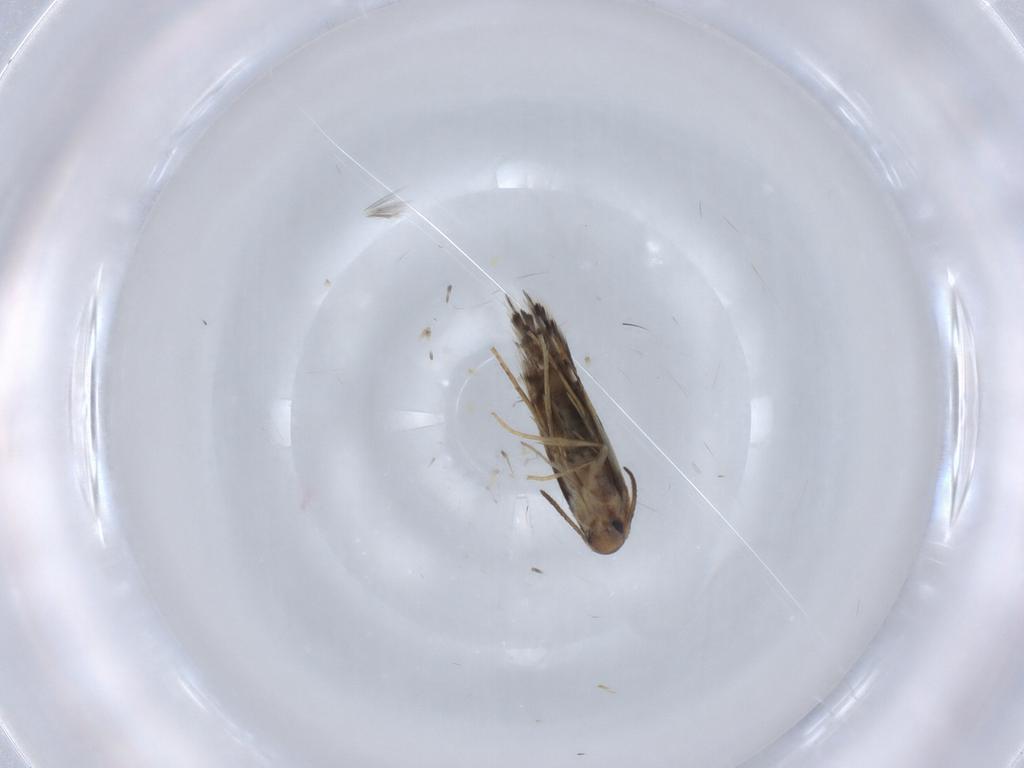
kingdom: Animalia
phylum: Arthropoda
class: Insecta
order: Lepidoptera
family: Heliozelidae
